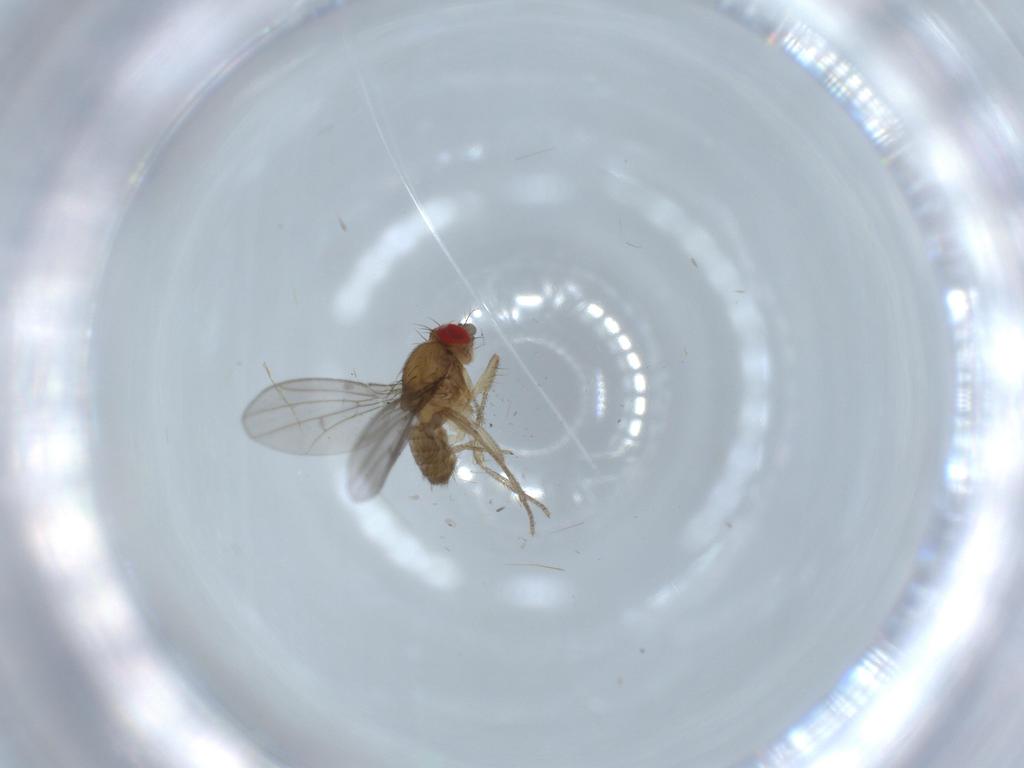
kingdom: Animalia
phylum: Arthropoda
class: Insecta
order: Diptera
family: Drosophilidae
